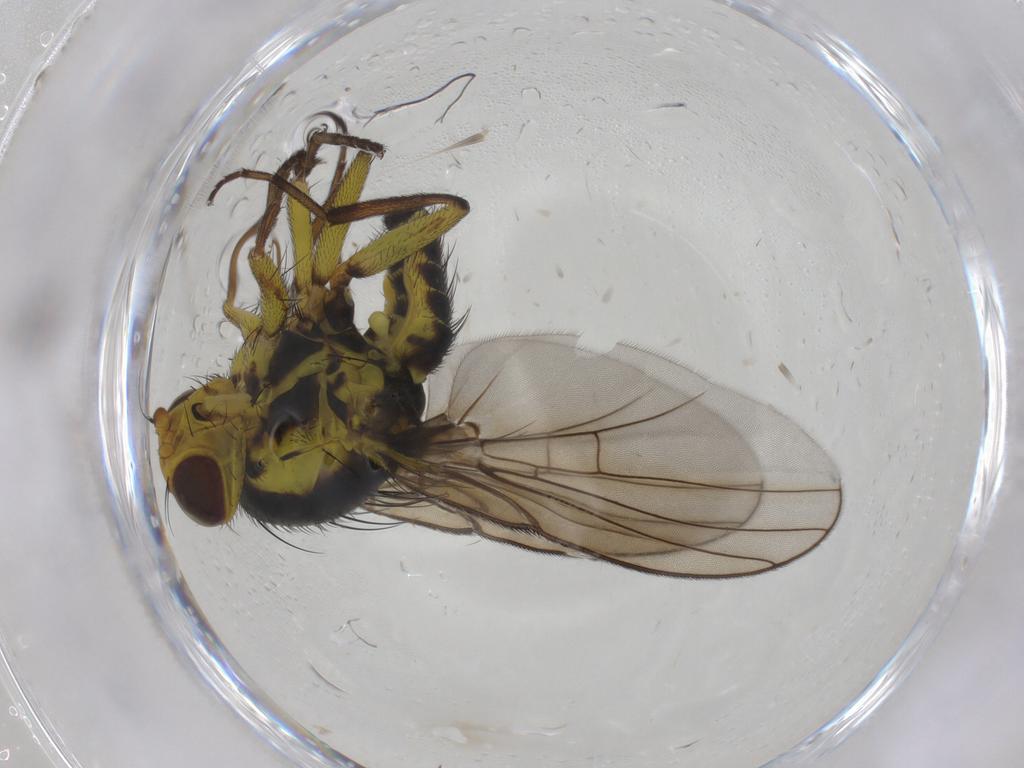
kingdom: Animalia
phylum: Arthropoda
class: Insecta
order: Diptera
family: Agromyzidae
